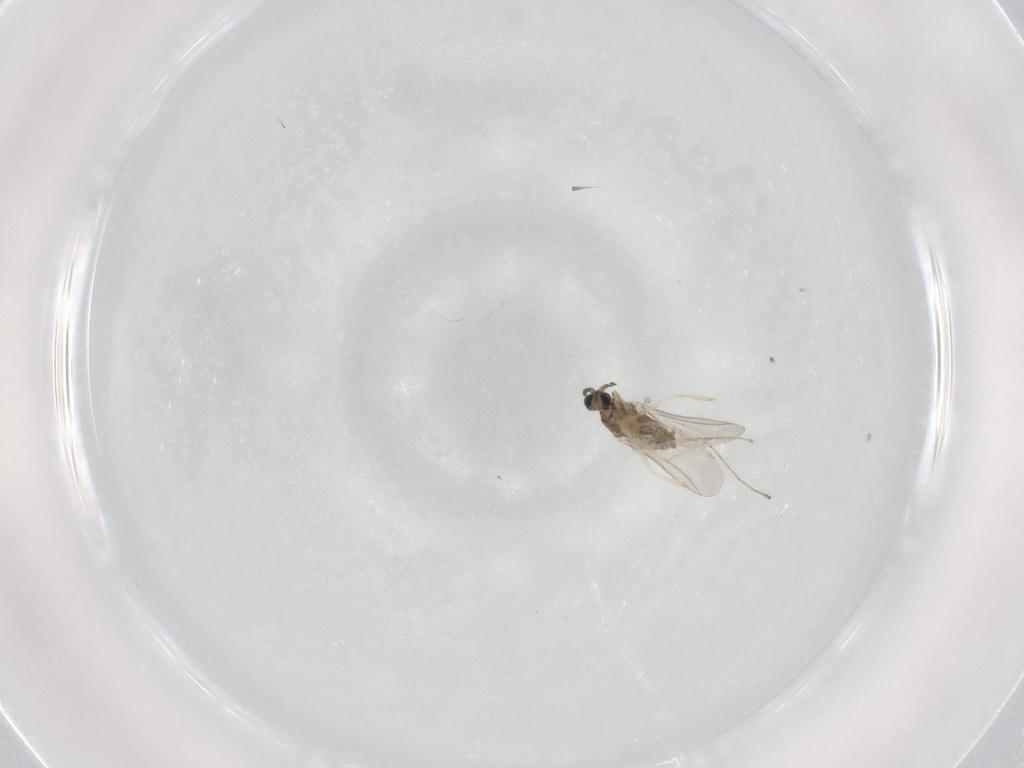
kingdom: Animalia
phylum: Arthropoda
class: Insecta
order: Diptera
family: Cecidomyiidae
